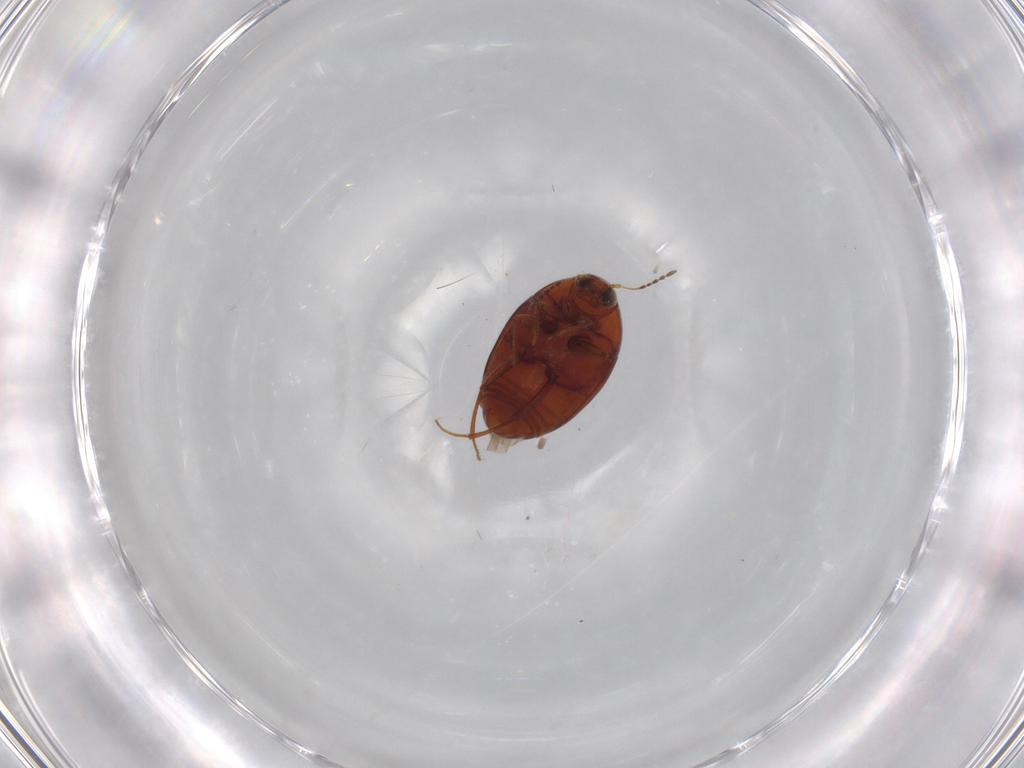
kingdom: Animalia
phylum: Arthropoda
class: Insecta
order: Coleoptera
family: Staphylinidae
